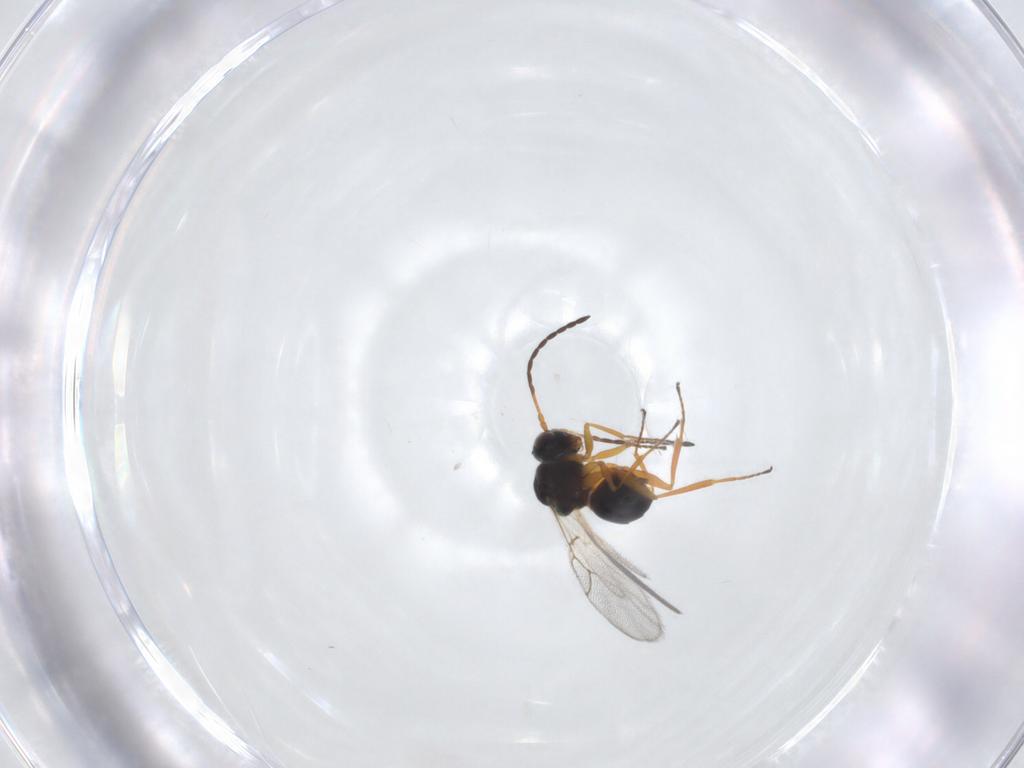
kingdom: Animalia
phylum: Arthropoda
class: Insecta
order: Hymenoptera
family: Figitidae
